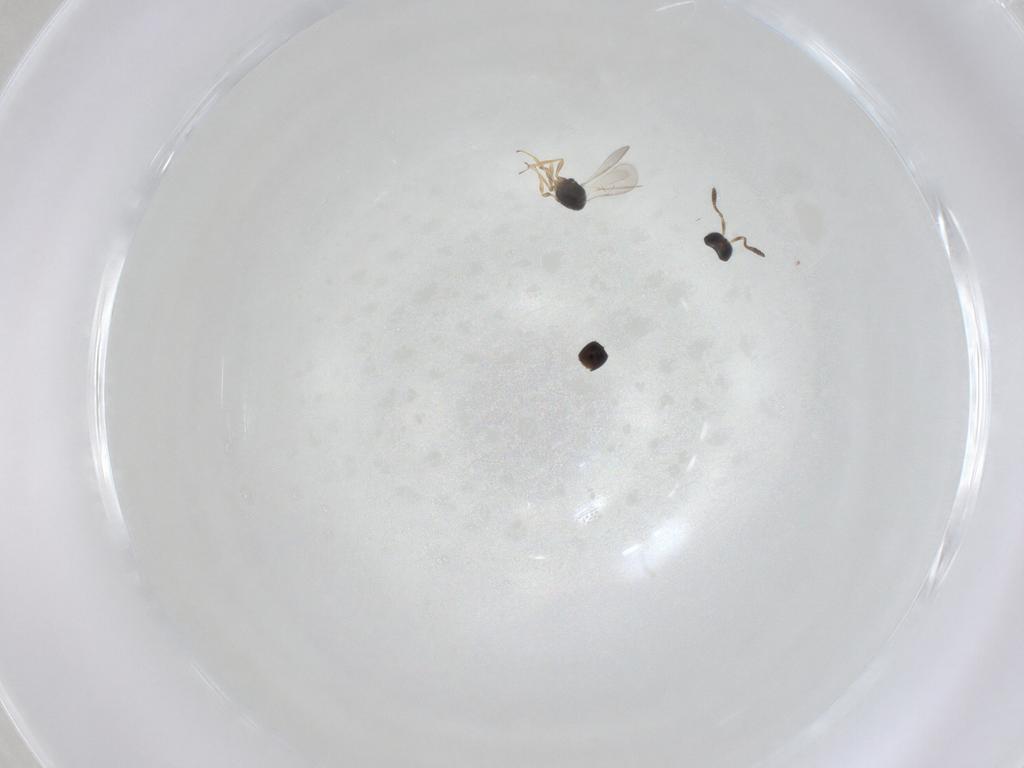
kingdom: Animalia
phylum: Arthropoda
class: Insecta
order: Hymenoptera
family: Scelionidae
